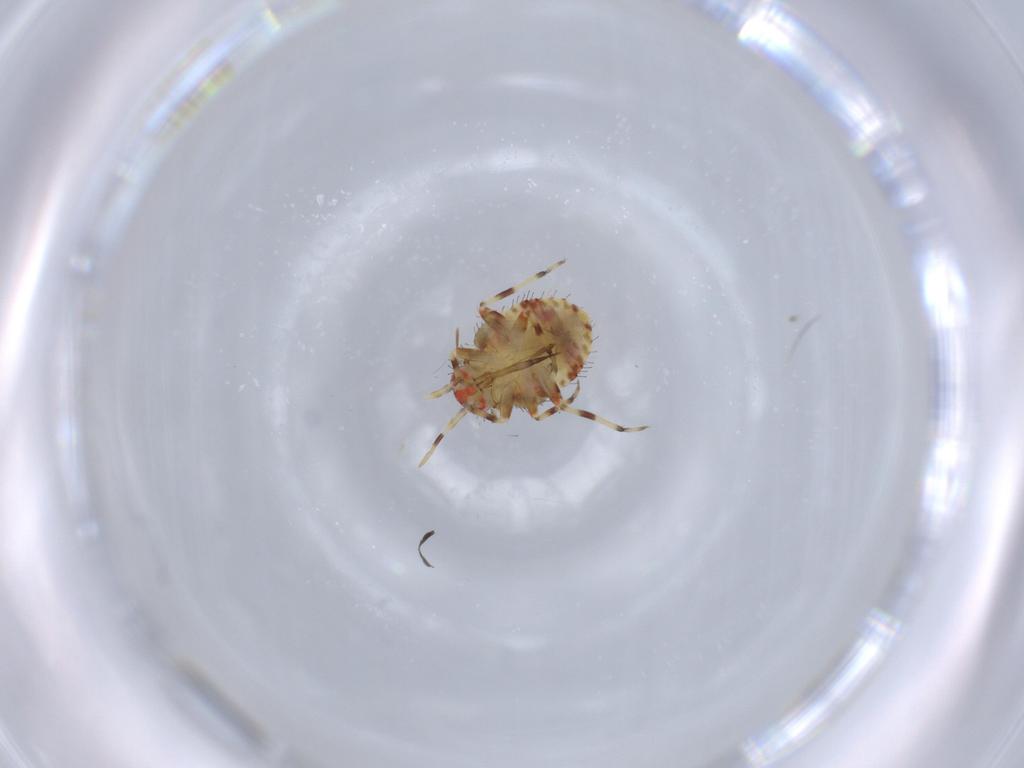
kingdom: Animalia
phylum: Arthropoda
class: Insecta
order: Hemiptera
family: Miridae
